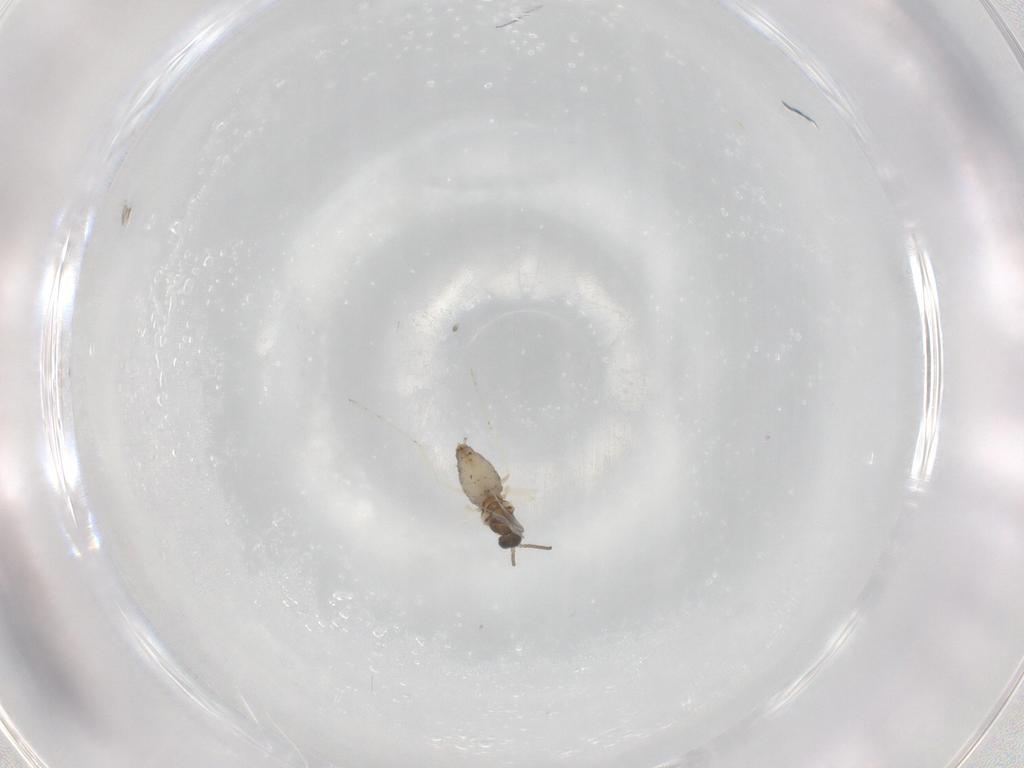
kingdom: Animalia
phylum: Arthropoda
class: Insecta
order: Diptera
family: Cecidomyiidae
